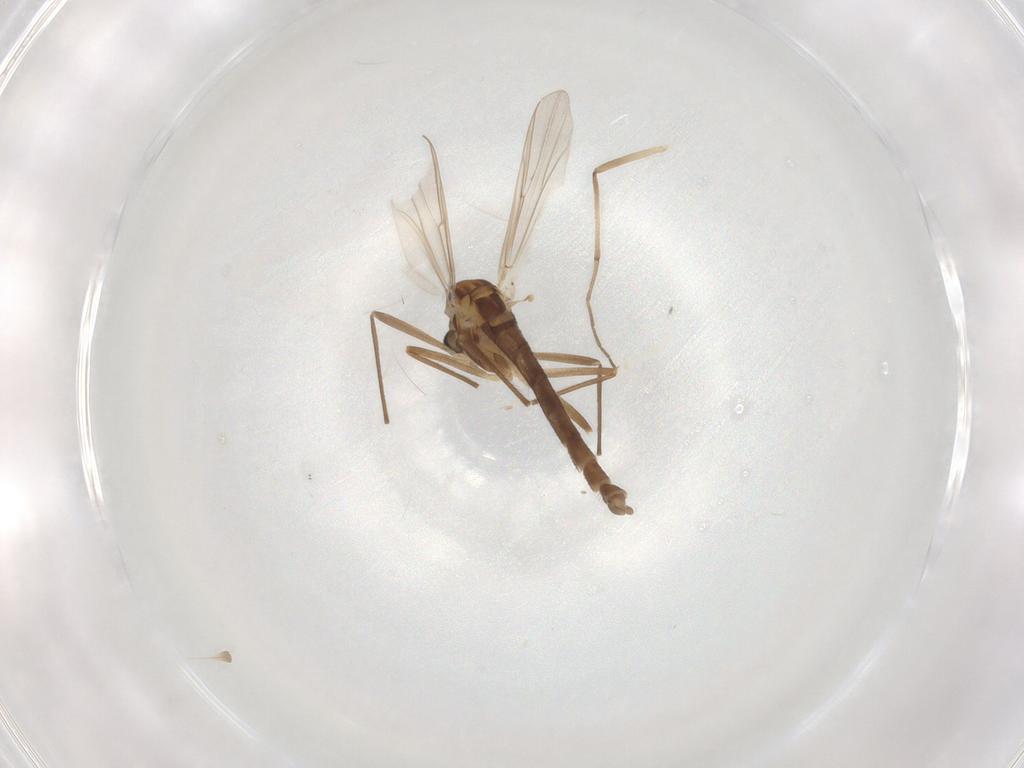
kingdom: Animalia
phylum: Arthropoda
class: Insecta
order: Diptera
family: Chironomidae
